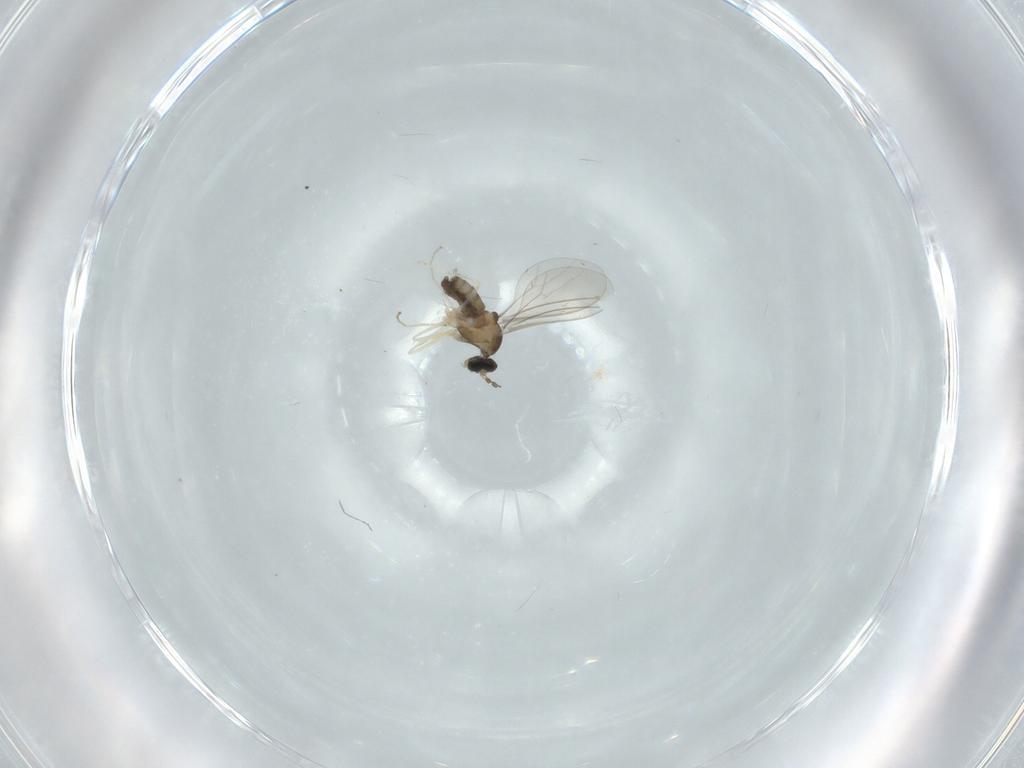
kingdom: Animalia
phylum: Arthropoda
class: Insecta
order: Diptera
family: Cecidomyiidae
